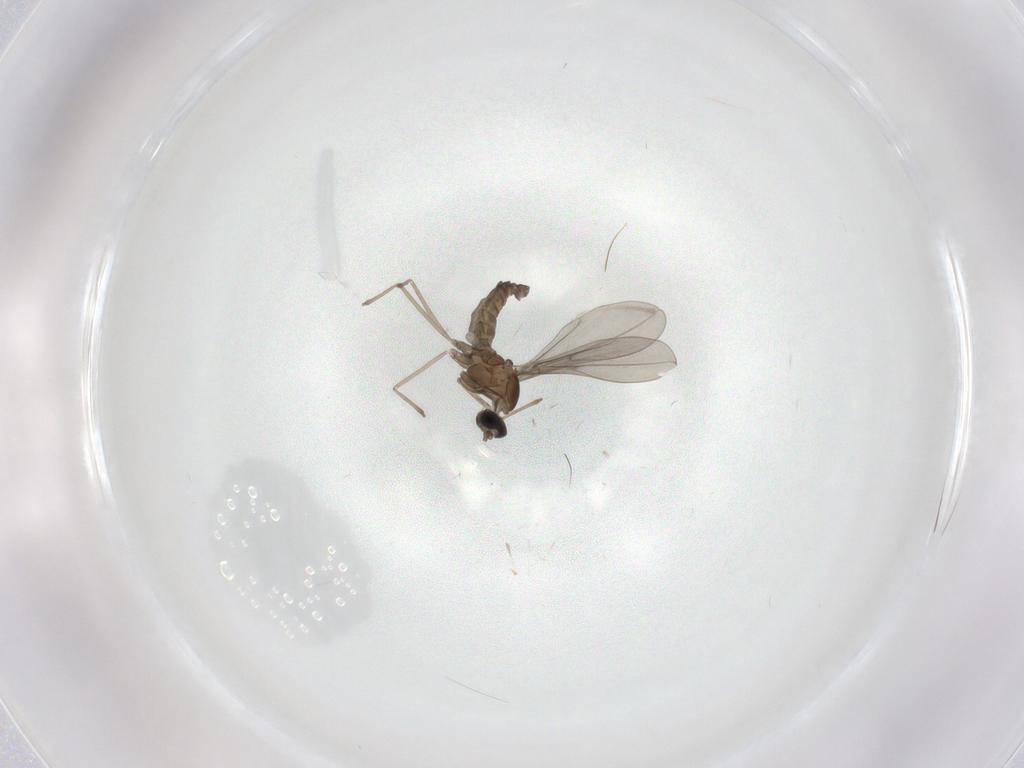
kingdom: Animalia
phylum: Arthropoda
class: Insecta
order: Diptera
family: Cecidomyiidae
